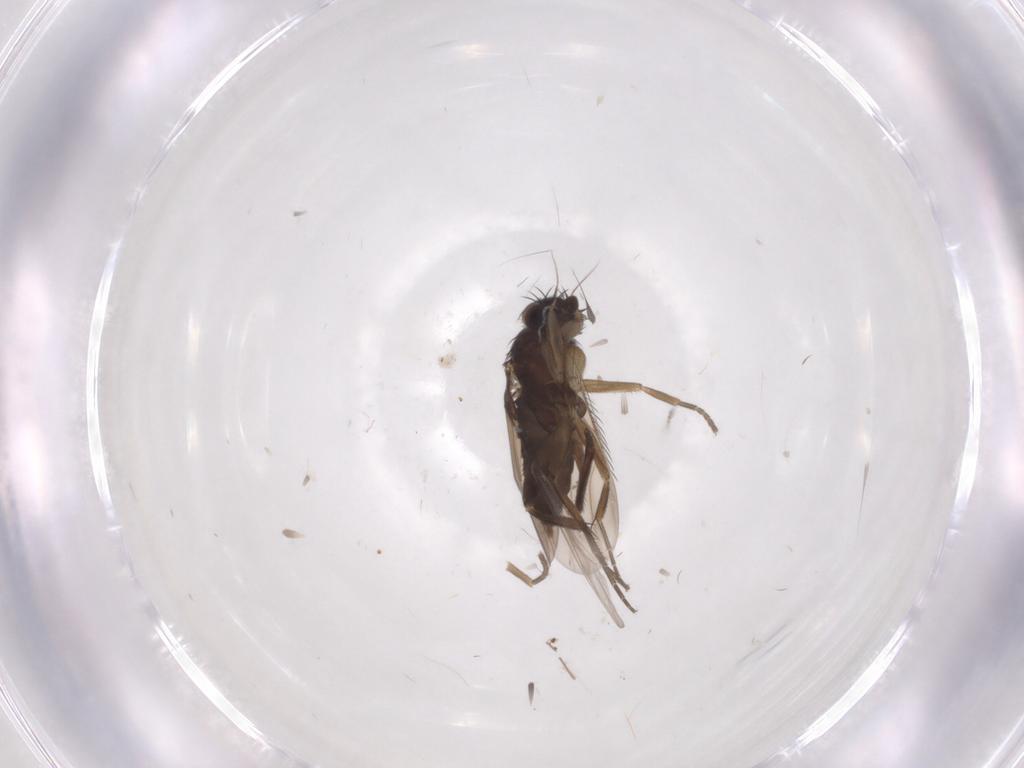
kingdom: Animalia
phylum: Arthropoda
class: Insecta
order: Diptera
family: Phoridae
